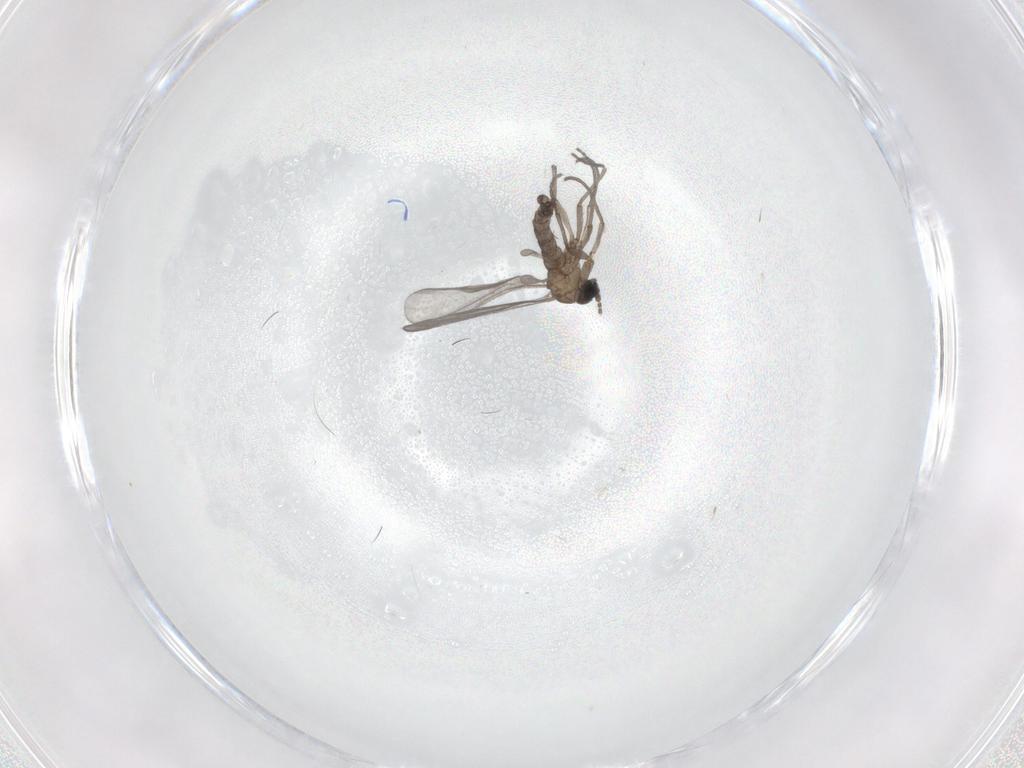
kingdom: Animalia
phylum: Arthropoda
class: Insecta
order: Diptera
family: Sciaridae
